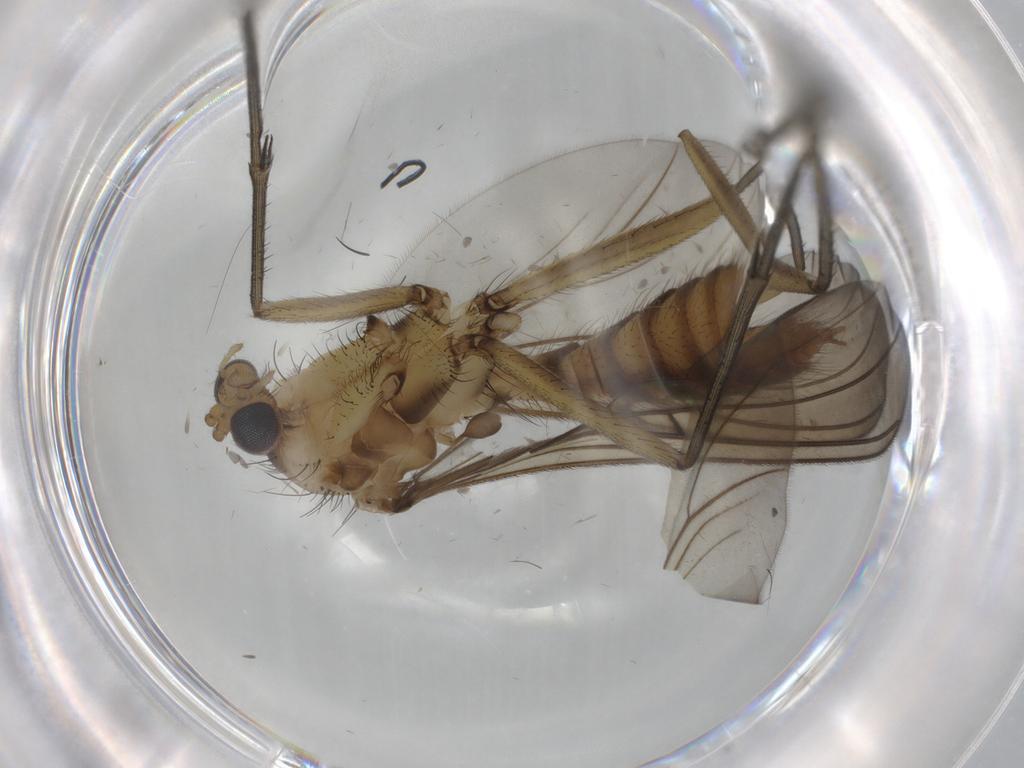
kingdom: Animalia
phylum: Arthropoda
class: Insecta
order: Diptera
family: Mycetophilidae
